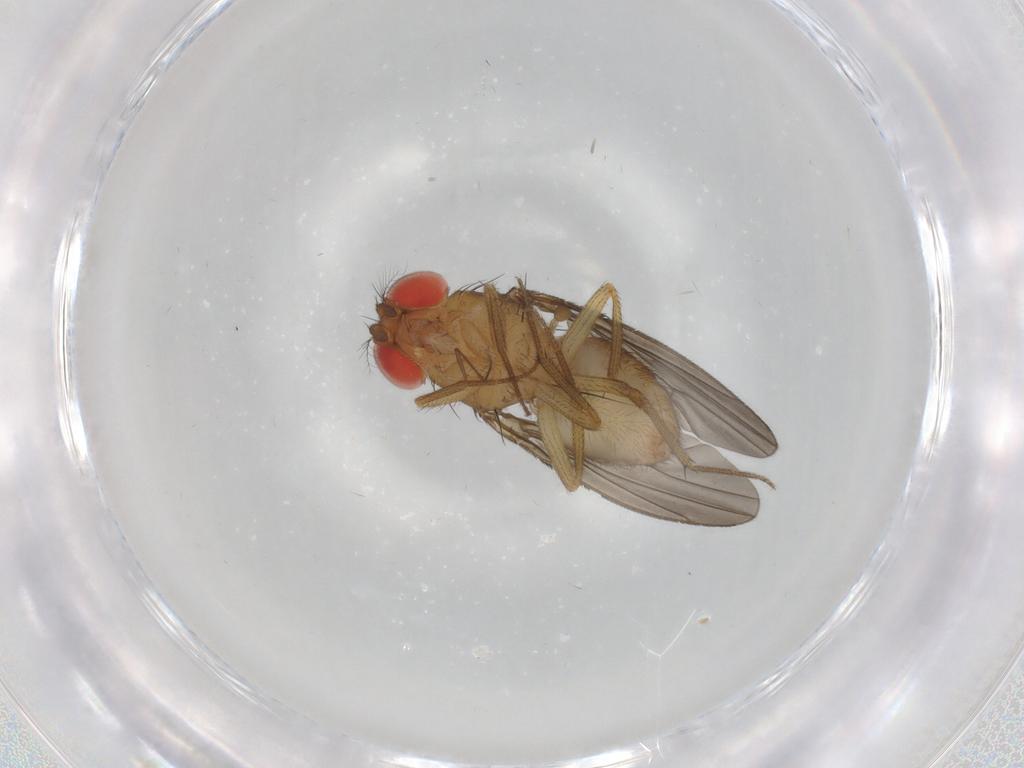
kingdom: Animalia
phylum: Arthropoda
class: Insecta
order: Diptera
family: Drosophilidae
